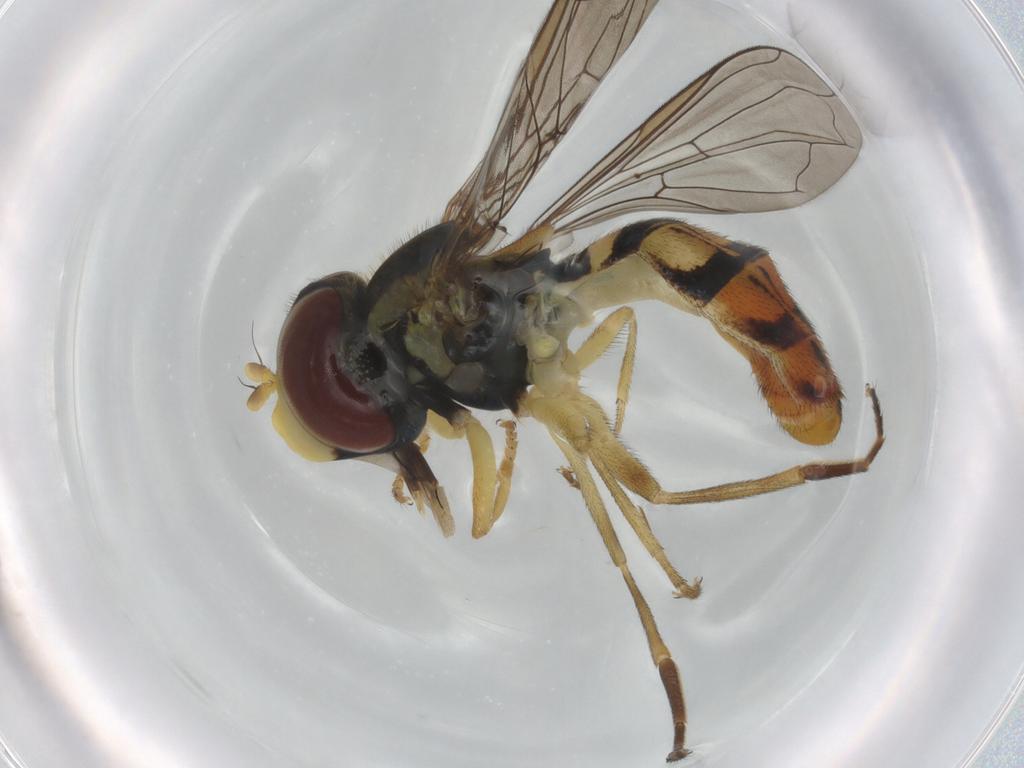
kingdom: Animalia
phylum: Arthropoda
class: Insecta
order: Diptera
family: Syrphidae
